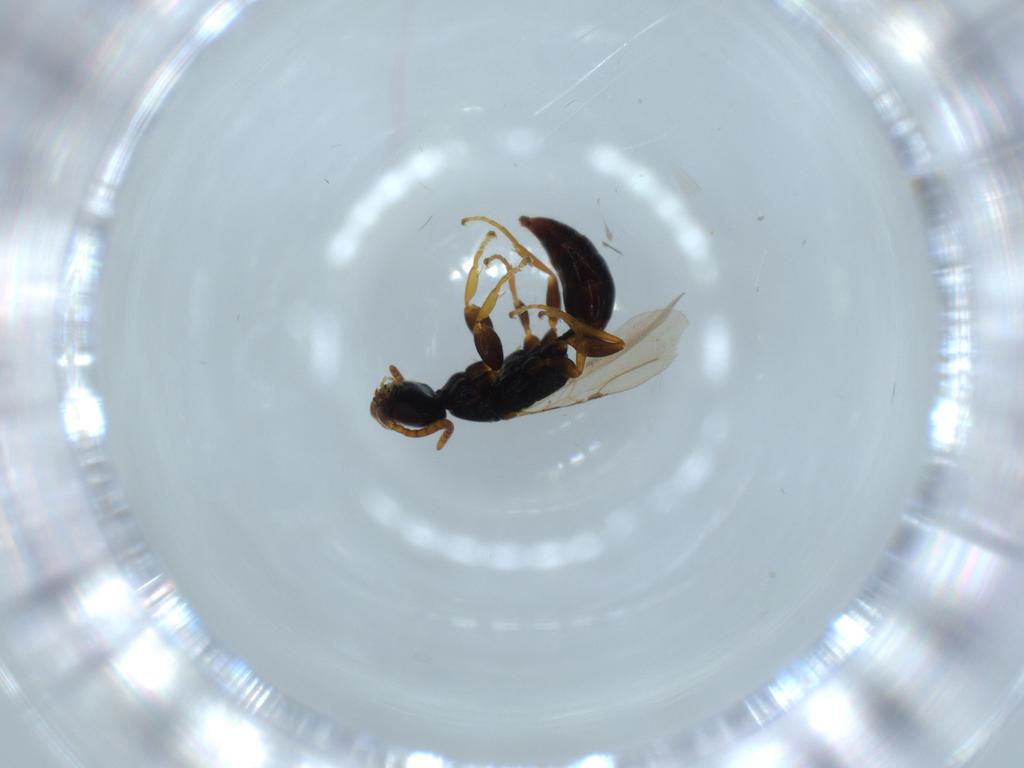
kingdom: Animalia
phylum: Arthropoda
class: Insecta
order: Hymenoptera
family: Bethylidae
